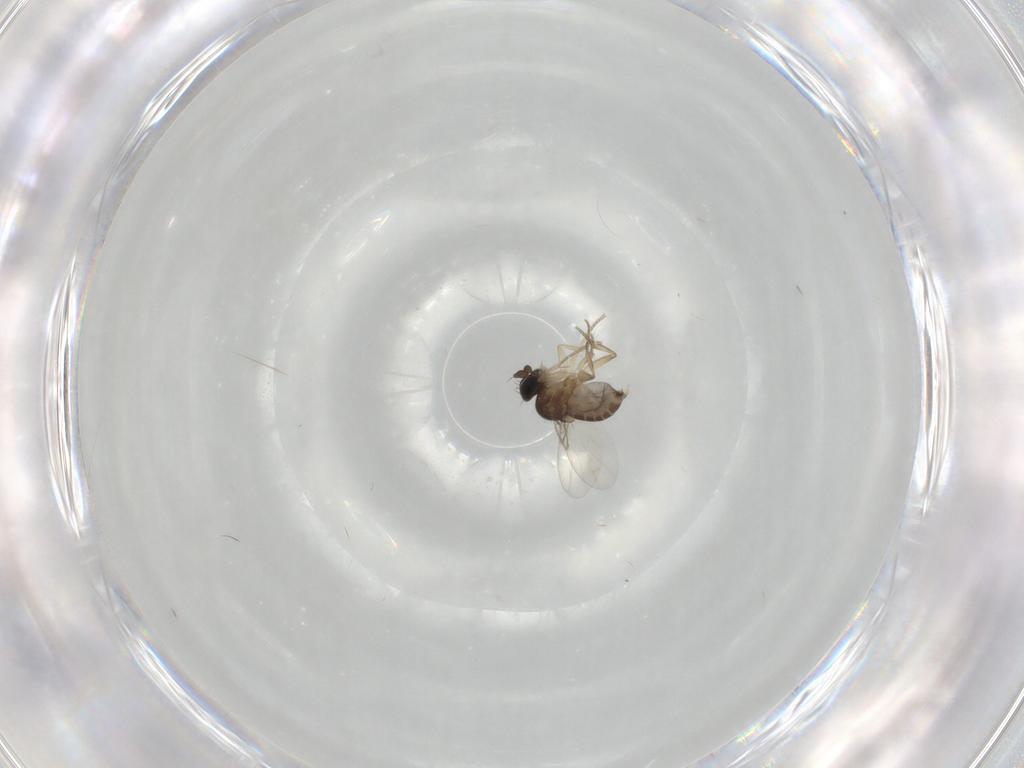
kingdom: Animalia
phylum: Arthropoda
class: Insecta
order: Diptera
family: Phoridae
